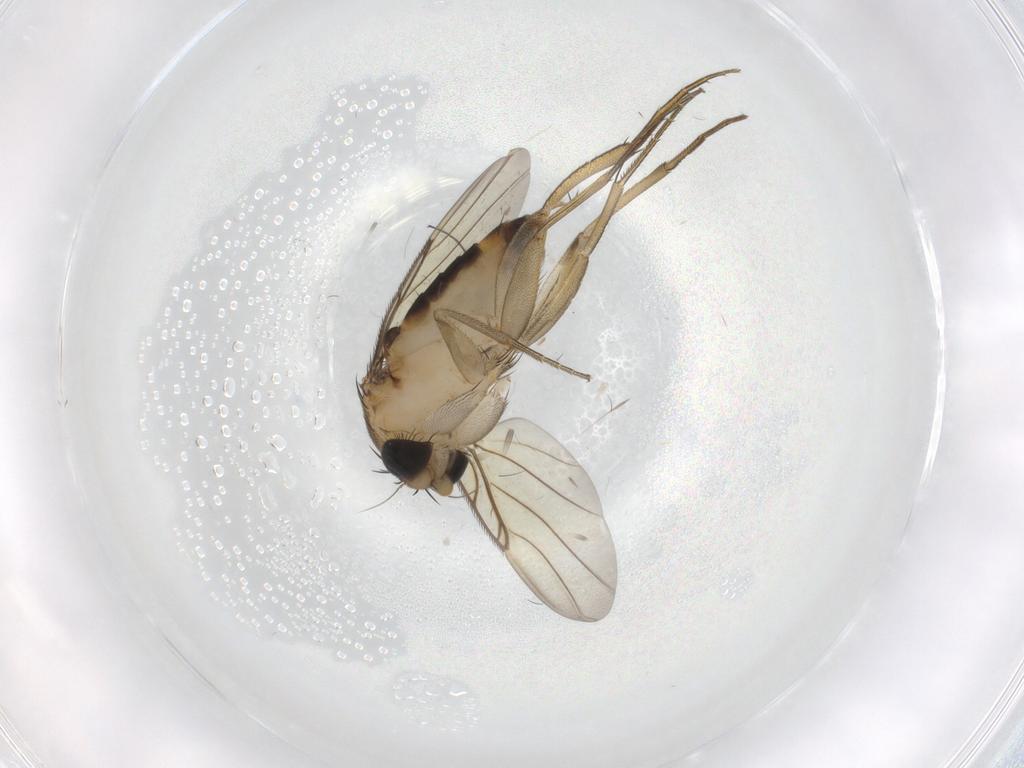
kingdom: Animalia
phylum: Arthropoda
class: Insecta
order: Diptera
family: Phoridae
